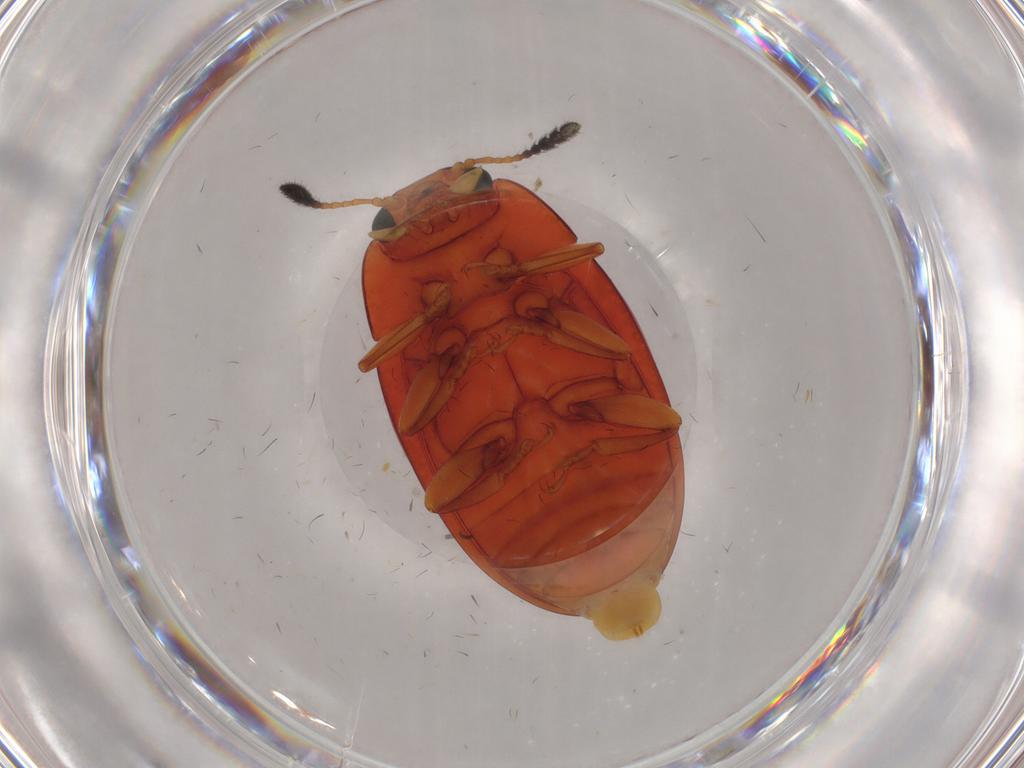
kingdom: Animalia
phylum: Arthropoda
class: Insecta
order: Coleoptera
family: Erotylidae
